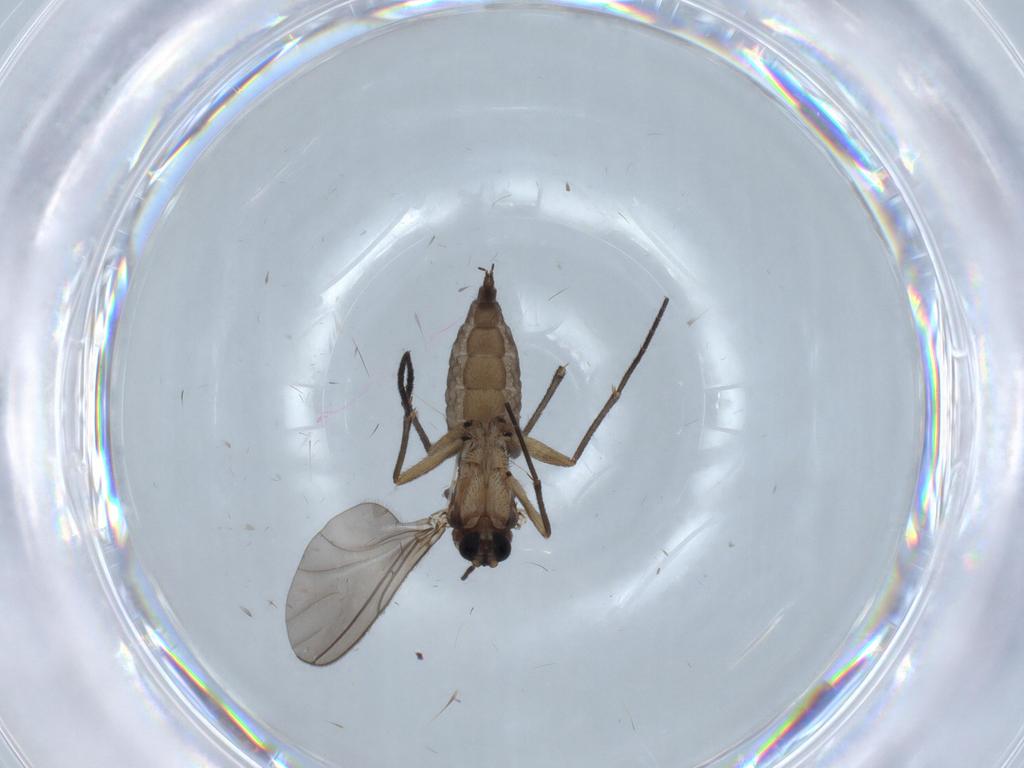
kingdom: Animalia
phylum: Arthropoda
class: Insecta
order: Diptera
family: Sciaridae
